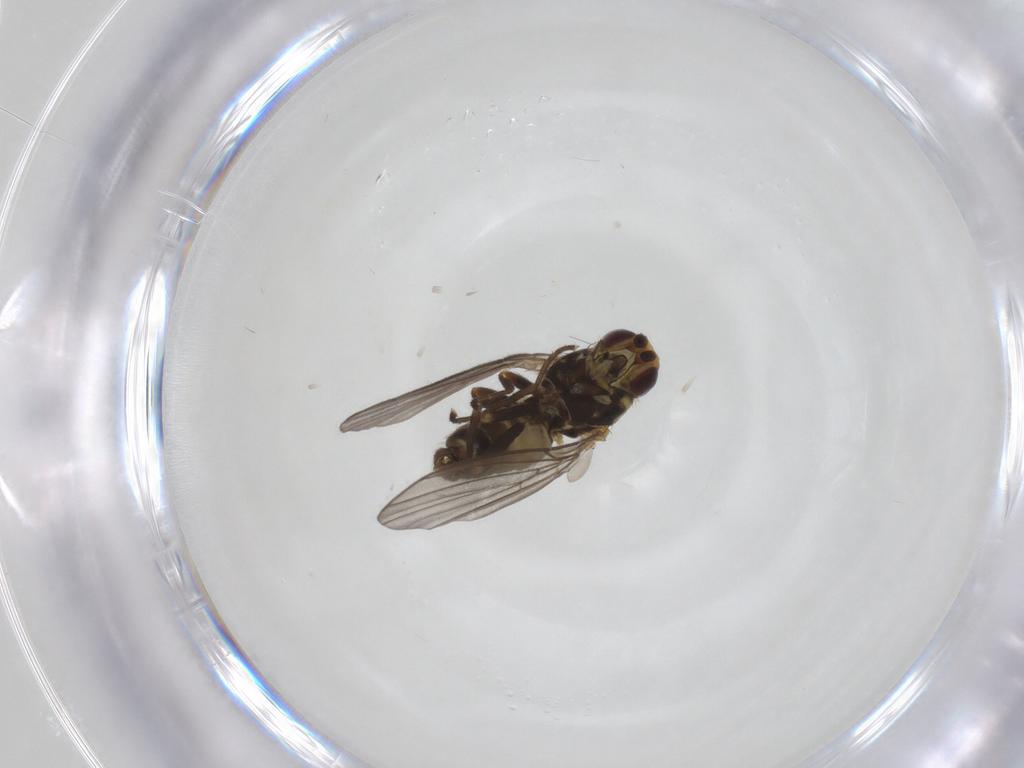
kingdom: Animalia
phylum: Arthropoda
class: Insecta
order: Diptera
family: Agromyzidae
